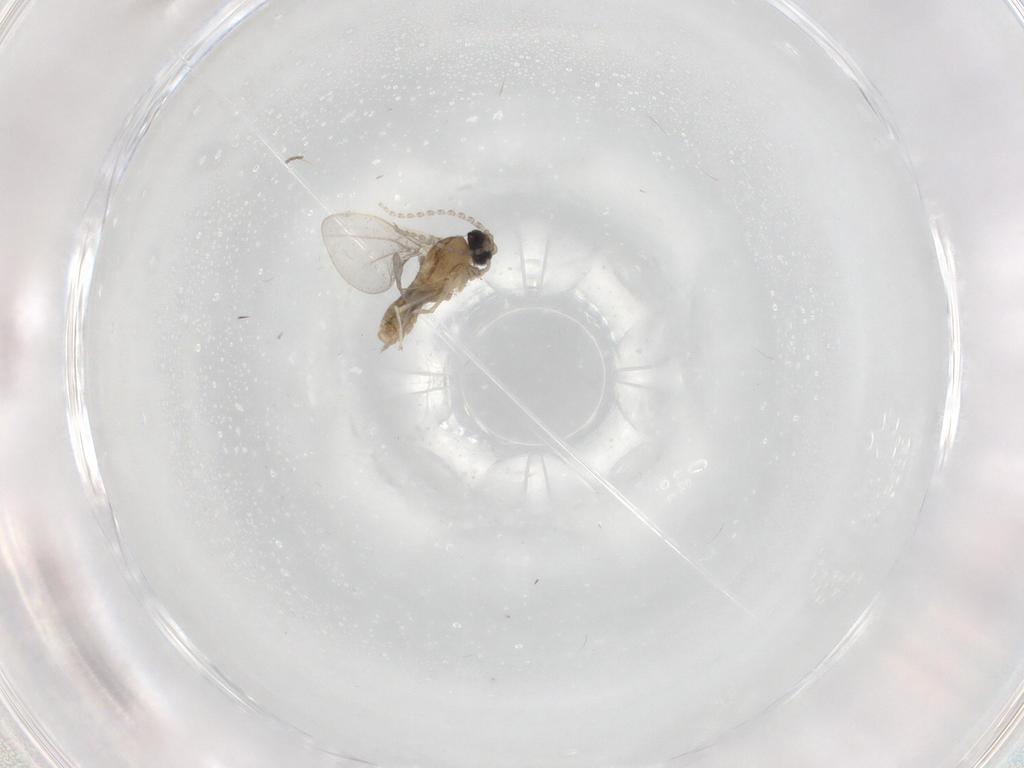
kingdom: Animalia
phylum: Arthropoda
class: Insecta
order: Diptera
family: Cecidomyiidae
